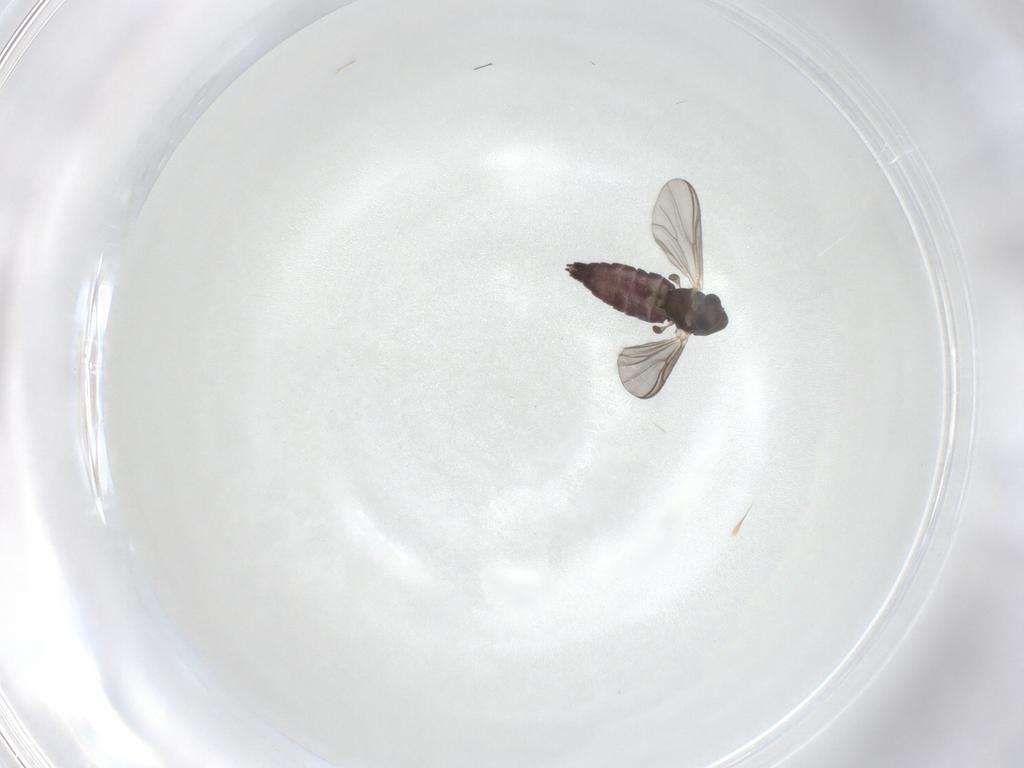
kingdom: Animalia
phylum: Arthropoda
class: Insecta
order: Diptera
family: Chironomidae
